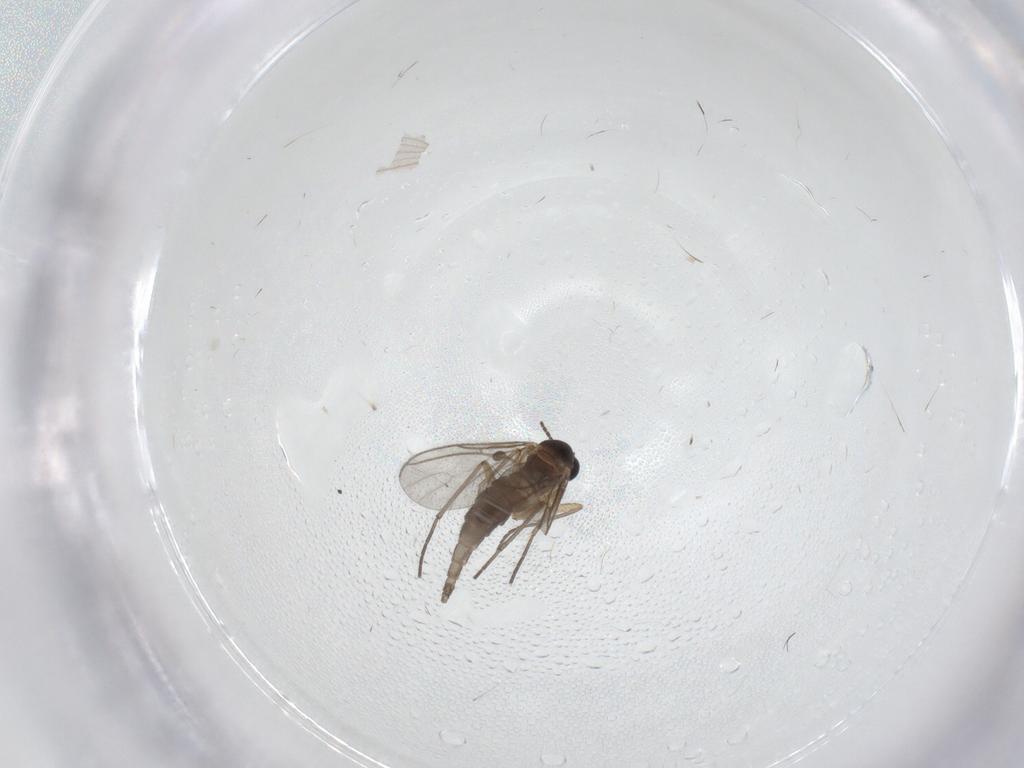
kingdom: Animalia
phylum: Arthropoda
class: Insecta
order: Diptera
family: Sciaridae
